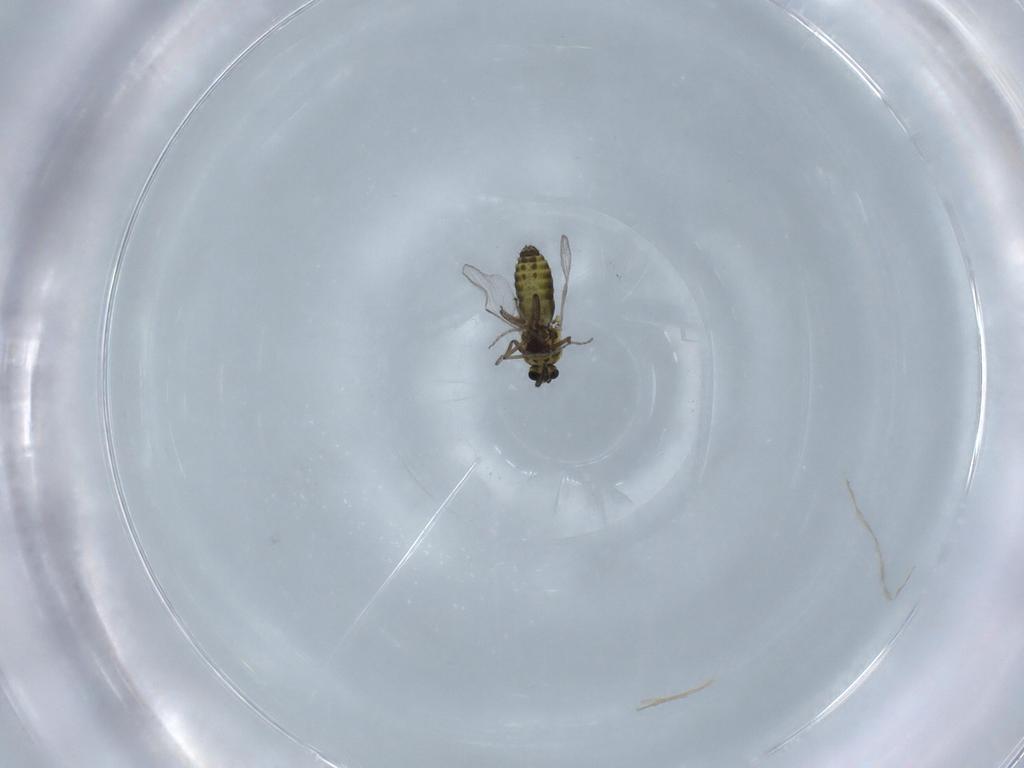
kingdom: Animalia
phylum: Arthropoda
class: Insecta
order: Diptera
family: Ceratopogonidae
